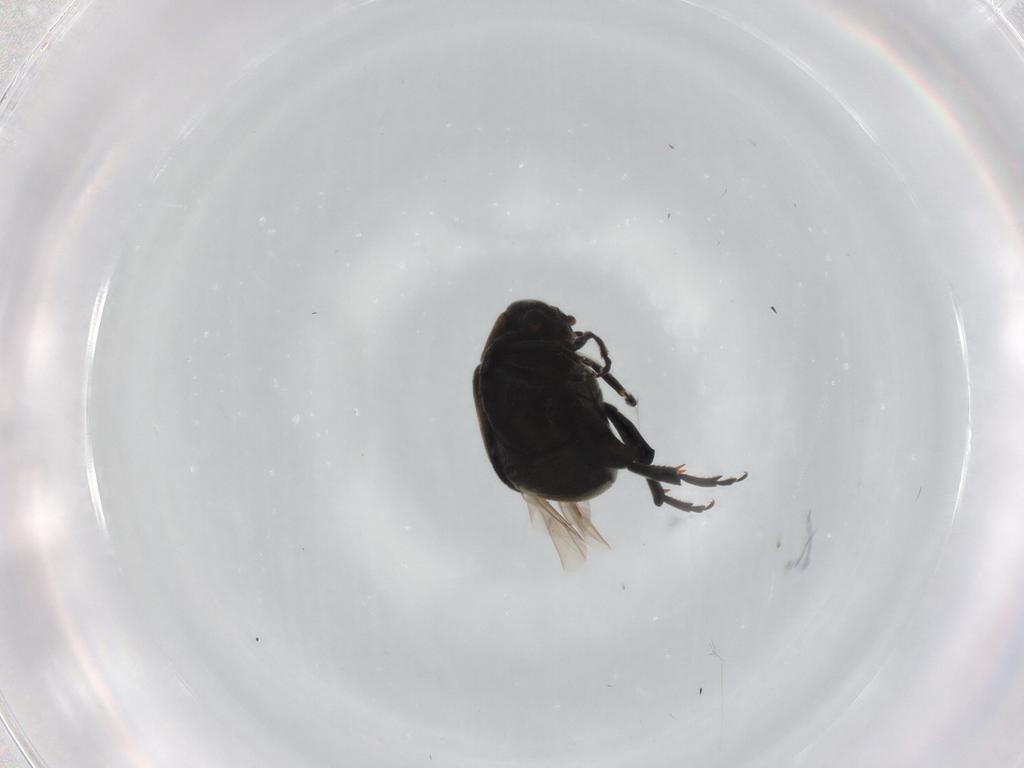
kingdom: Animalia
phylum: Arthropoda
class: Insecta
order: Coleoptera
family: Chrysomelidae
